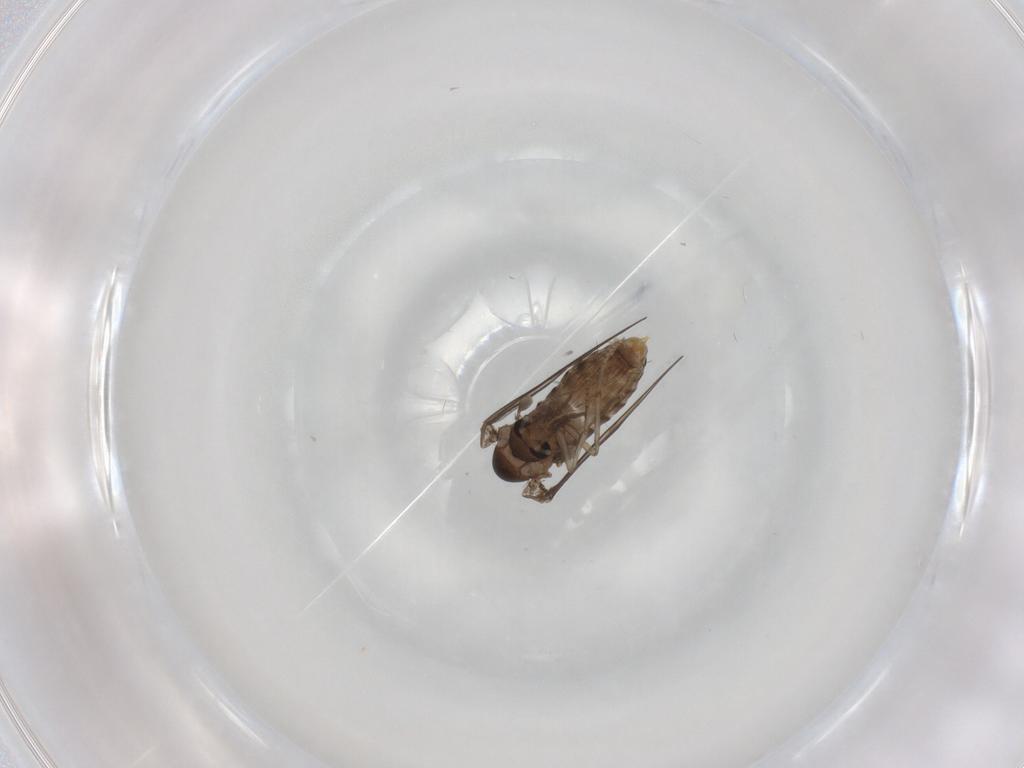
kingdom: Animalia
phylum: Arthropoda
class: Insecta
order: Diptera
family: Psychodidae
